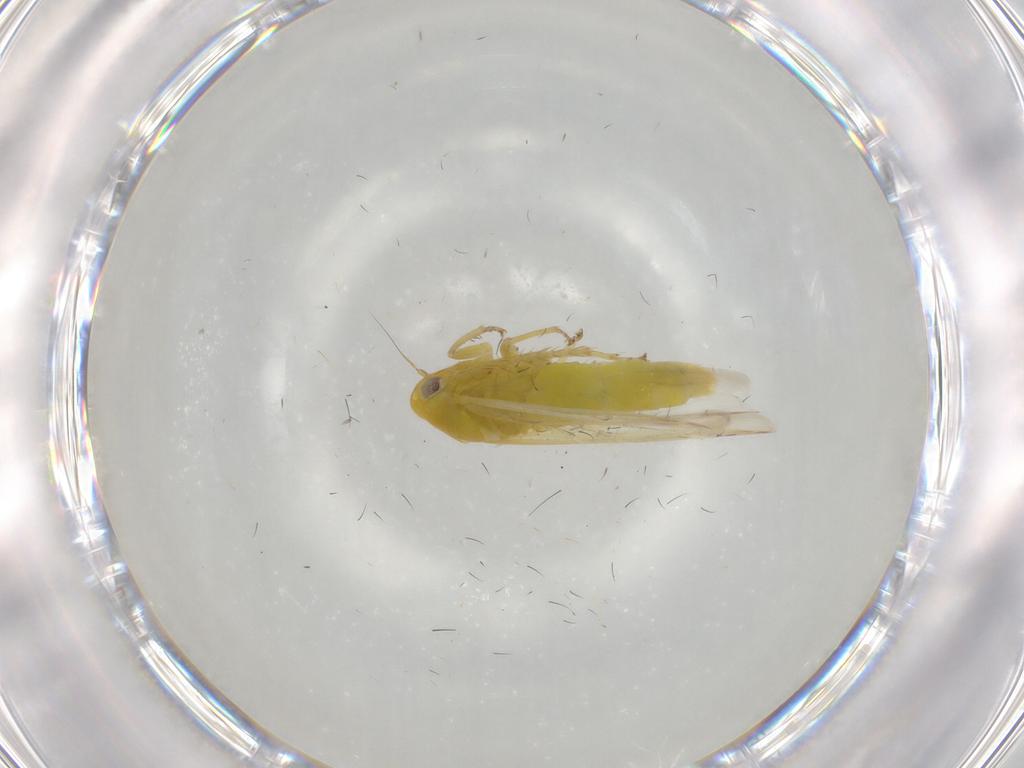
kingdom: Animalia
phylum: Arthropoda
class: Insecta
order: Hemiptera
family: Cicadellidae
